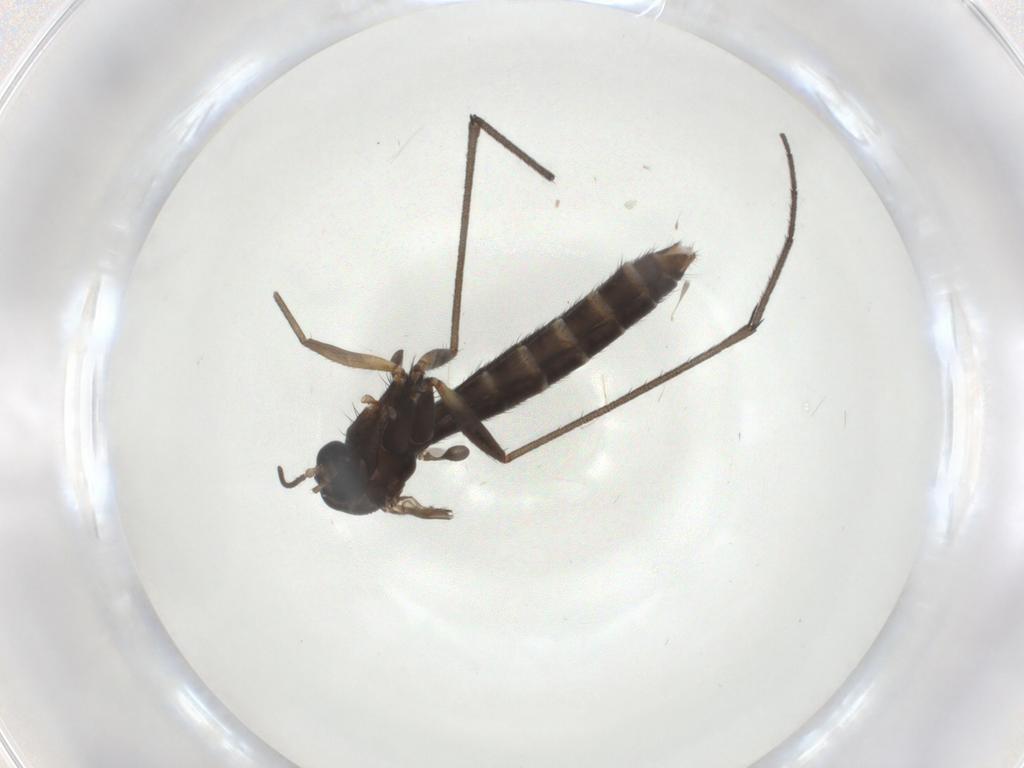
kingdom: Animalia
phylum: Arthropoda
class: Insecta
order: Diptera
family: Ditomyiidae
